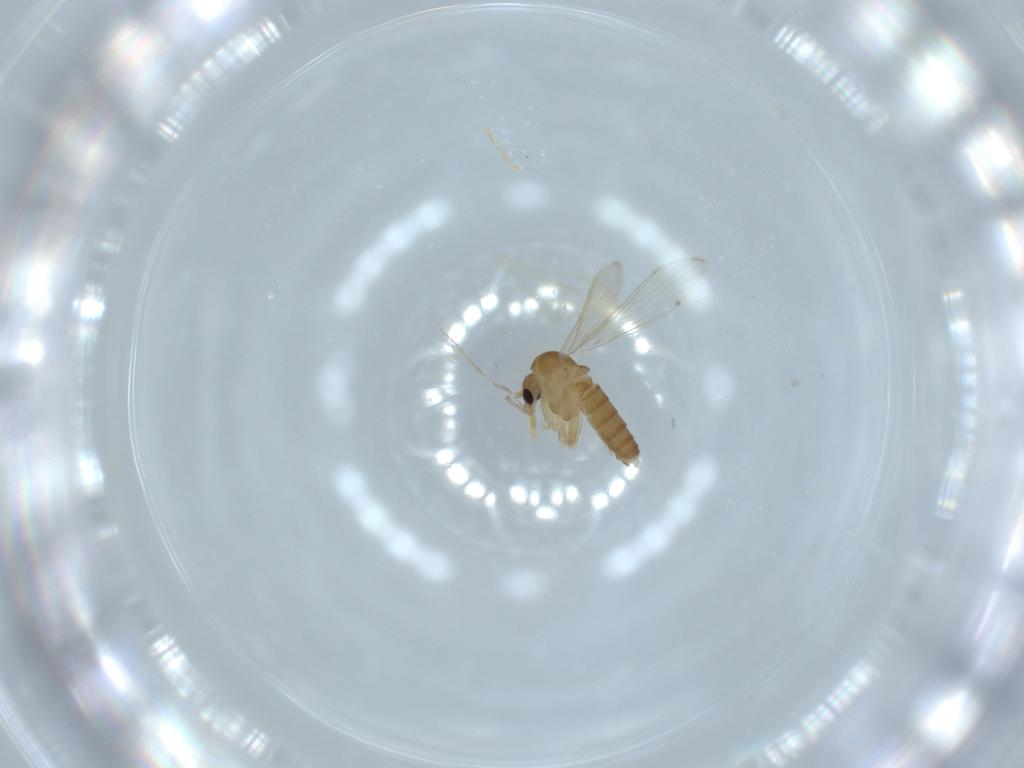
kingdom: Animalia
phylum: Arthropoda
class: Insecta
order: Diptera
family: Psychodidae
